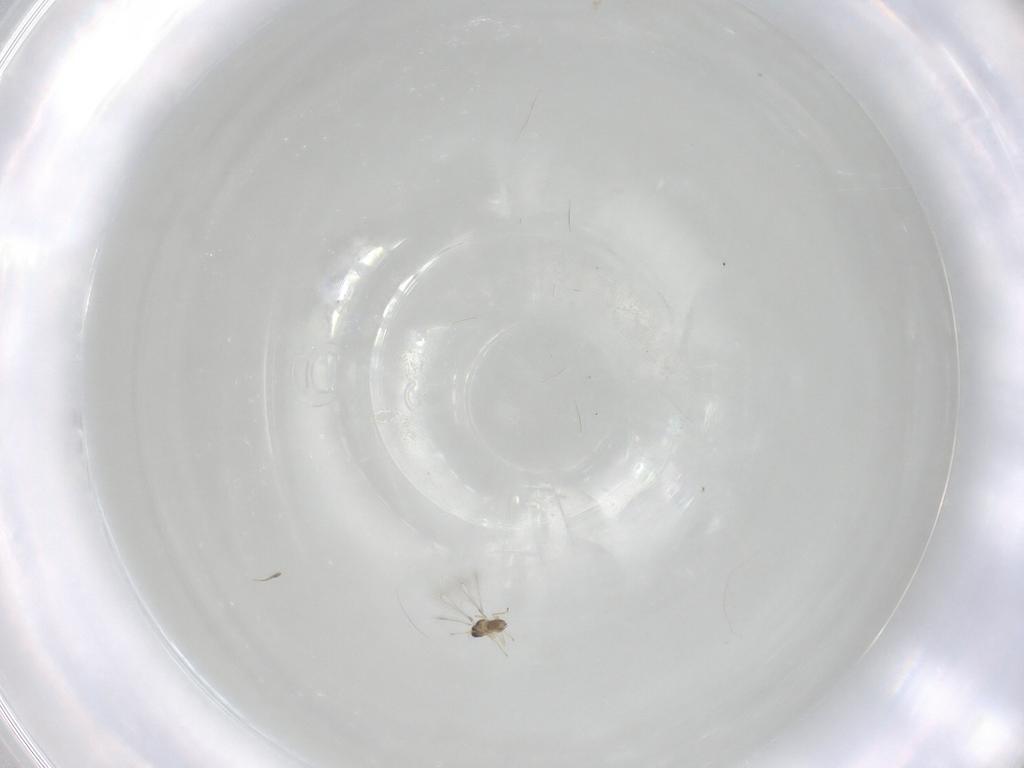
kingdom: Animalia
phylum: Arthropoda
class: Insecta
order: Hymenoptera
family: Mymaridae
